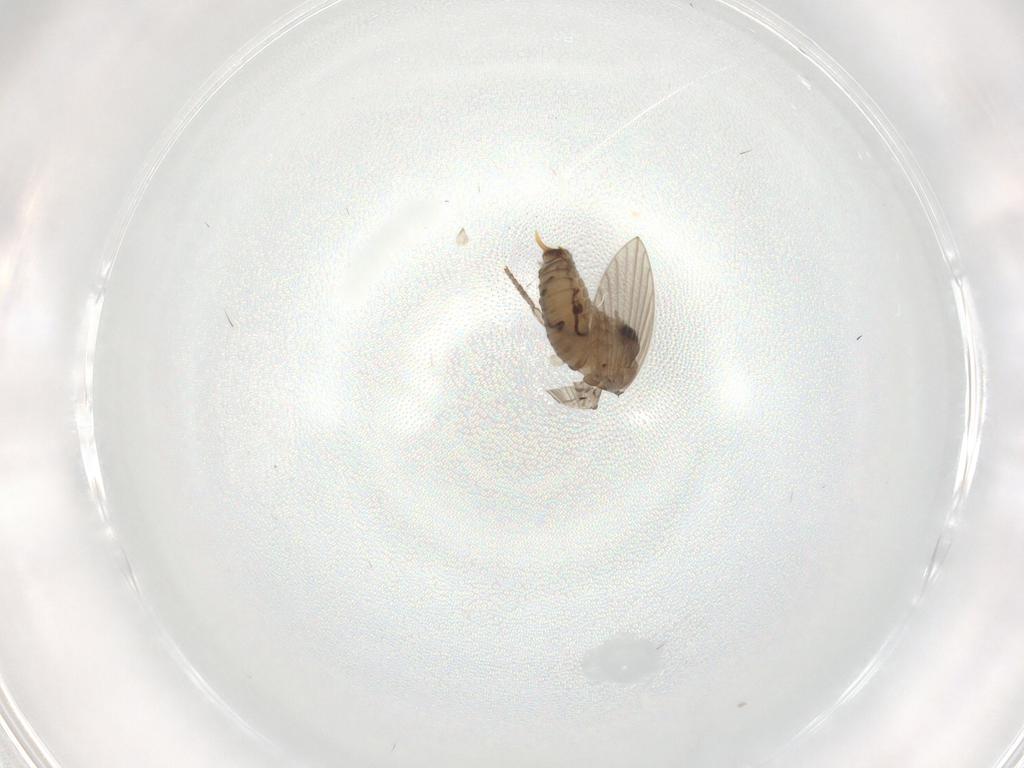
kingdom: Animalia
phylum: Arthropoda
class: Insecta
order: Diptera
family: Psychodidae
